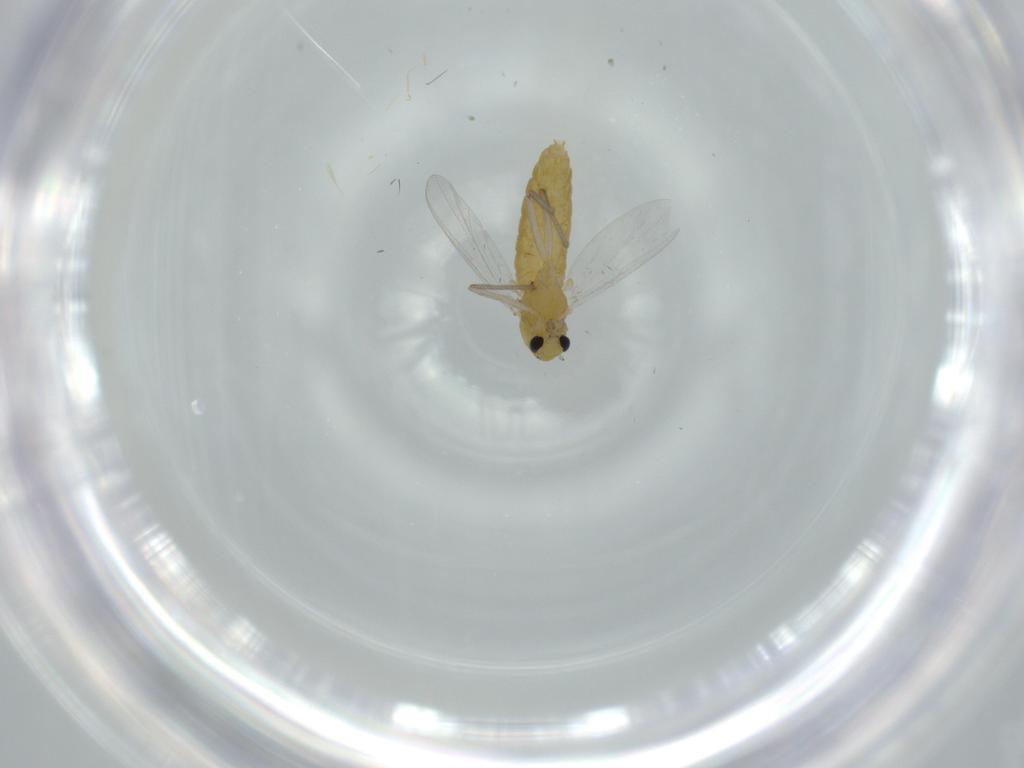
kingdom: Animalia
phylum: Arthropoda
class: Insecta
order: Diptera
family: Chironomidae
